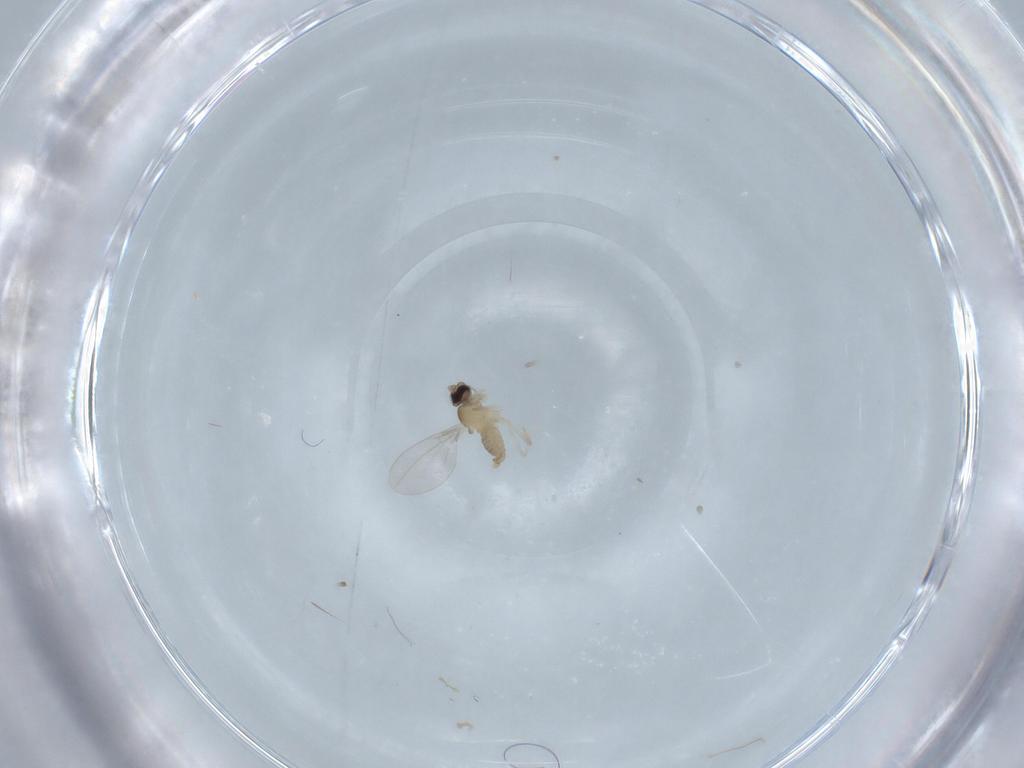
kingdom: Animalia
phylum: Arthropoda
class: Insecta
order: Diptera
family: Cecidomyiidae
